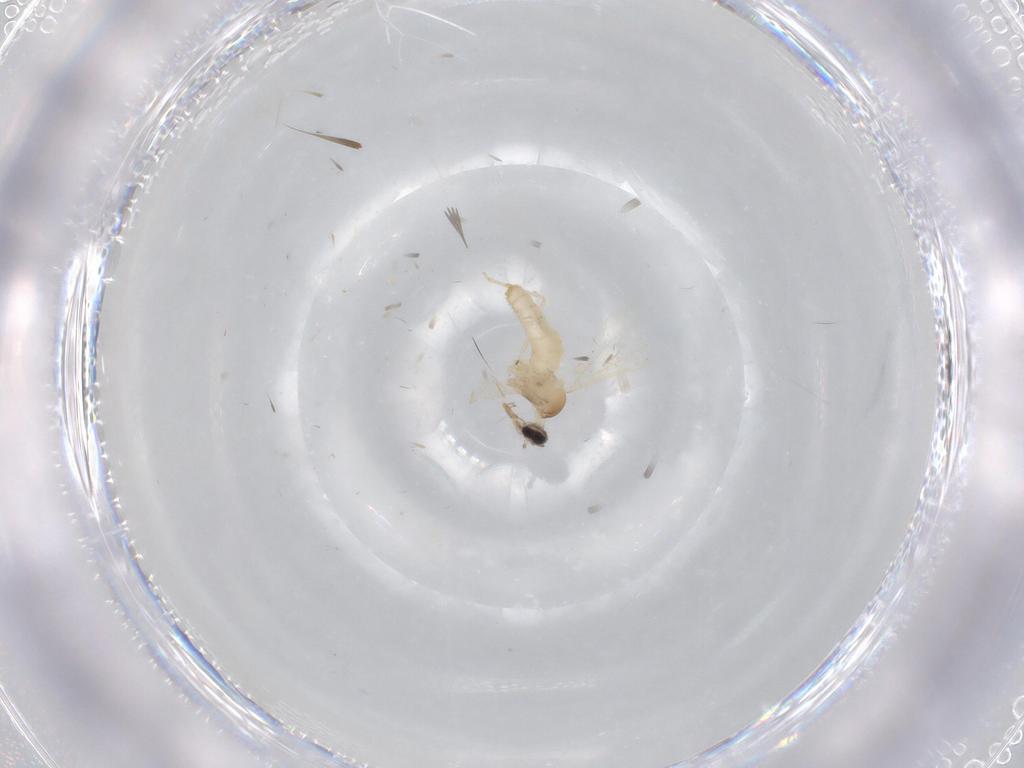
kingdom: Animalia
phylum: Arthropoda
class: Insecta
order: Diptera
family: Cecidomyiidae
